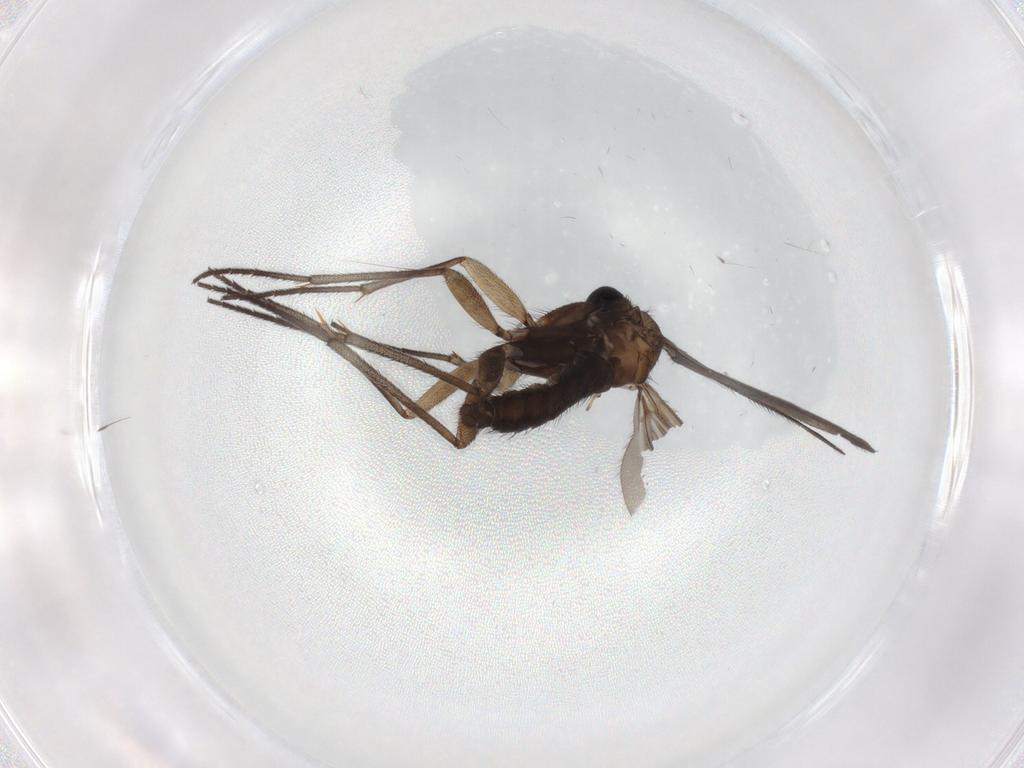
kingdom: Animalia
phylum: Arthropoda
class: Insecta
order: Diptera
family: Sciaridae
